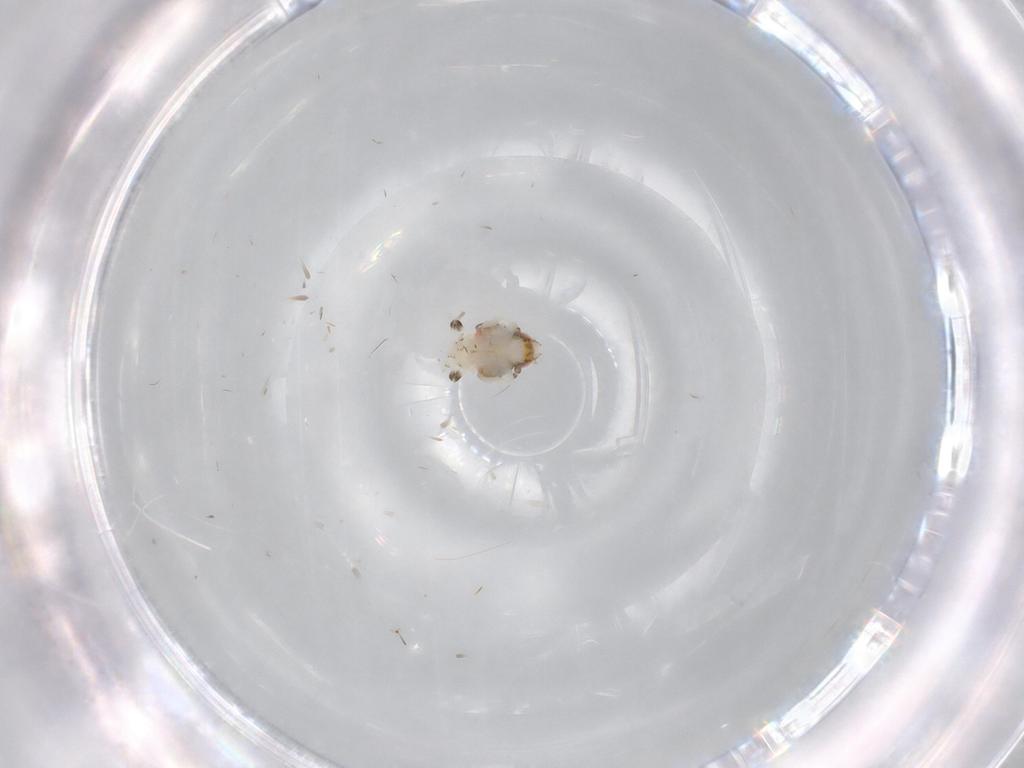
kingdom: Animalia
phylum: Arthropoda
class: Insecta
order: Hemiptera
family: Nogodinidae
